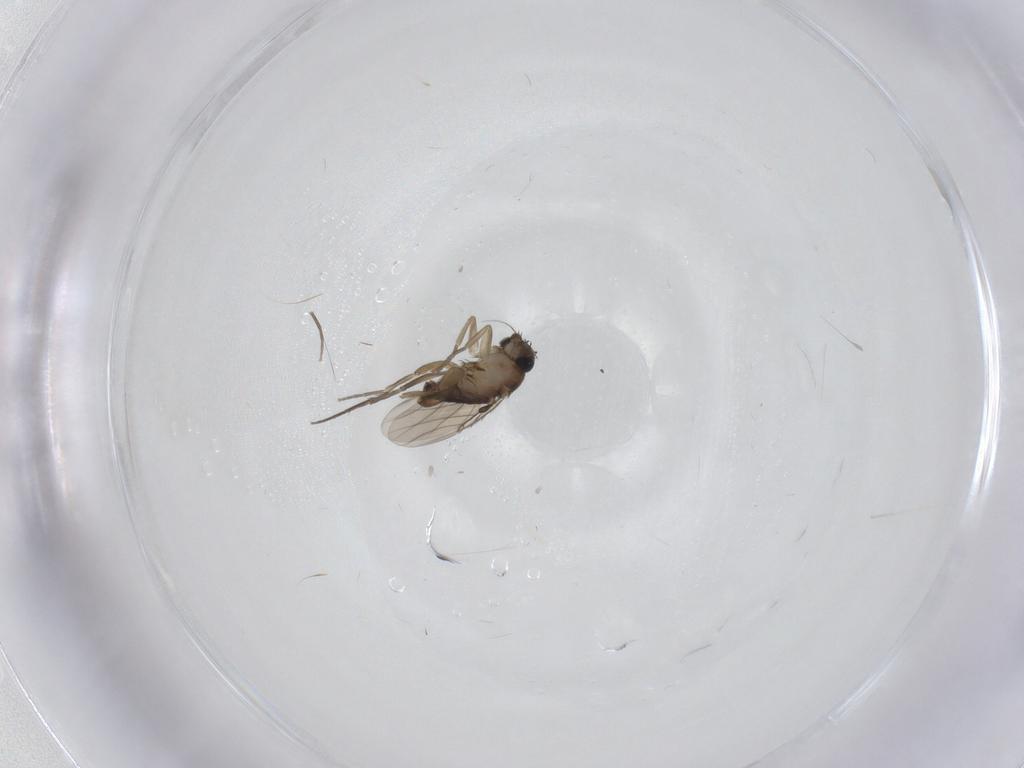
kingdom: Animalia
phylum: Arthropoda
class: Insecta
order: Diptera
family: Phoridae
